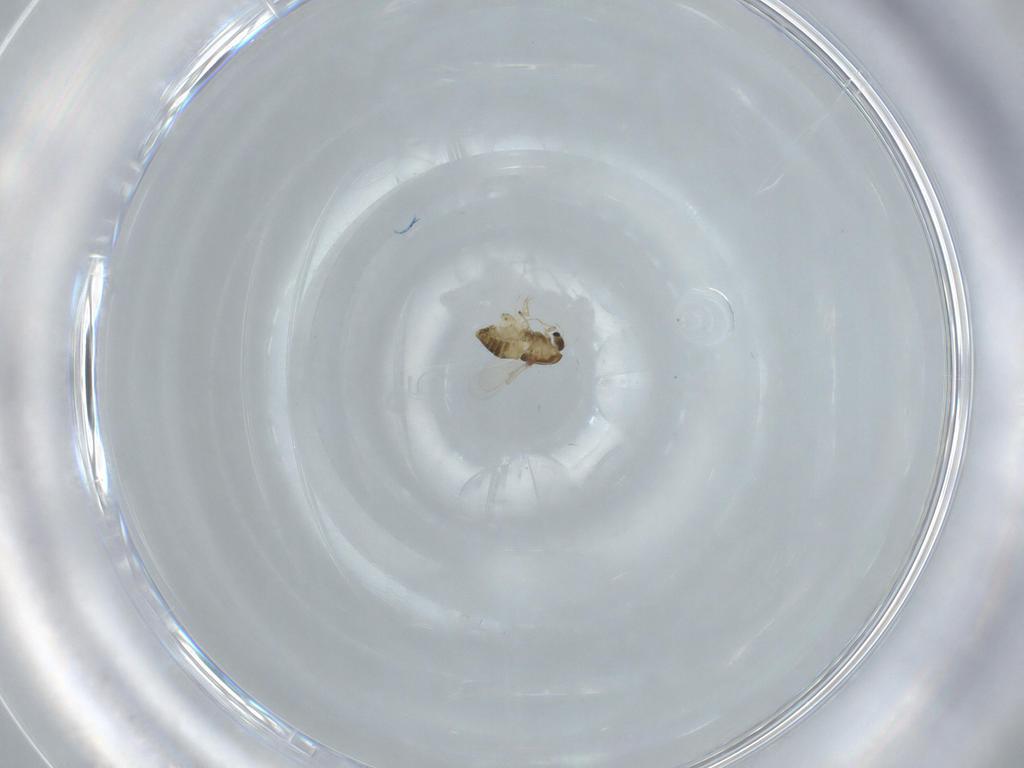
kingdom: Animalia
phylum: Arthropoda
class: Insecta
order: Diptera
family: Chironomidae
